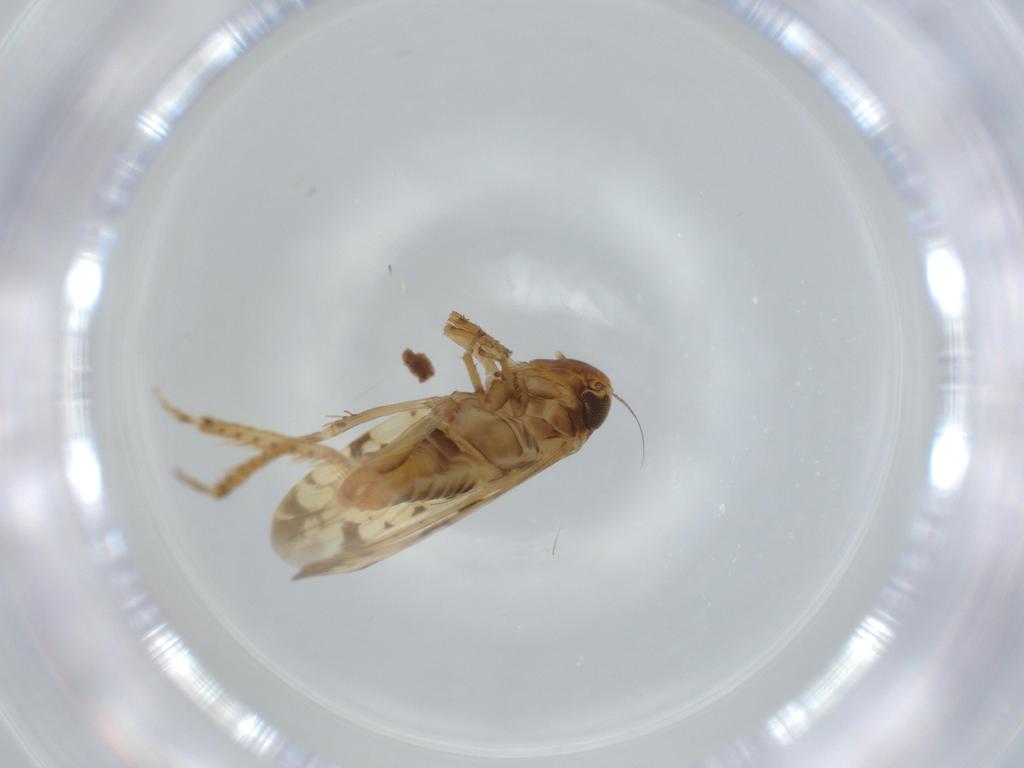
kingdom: Animalia
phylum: Arthropoda
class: Insecta
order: Hemiptera
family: Cicadellidae
